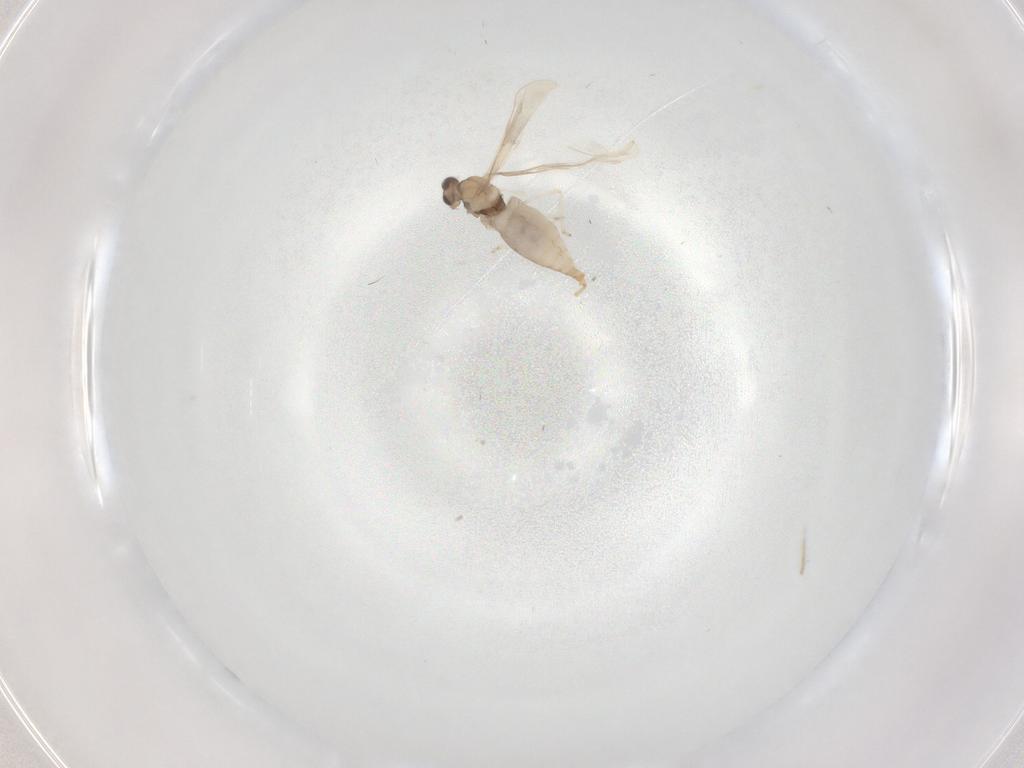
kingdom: Animalia
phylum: Arthropoda
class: Insecta
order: Diptera
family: Cecidomyiidae
